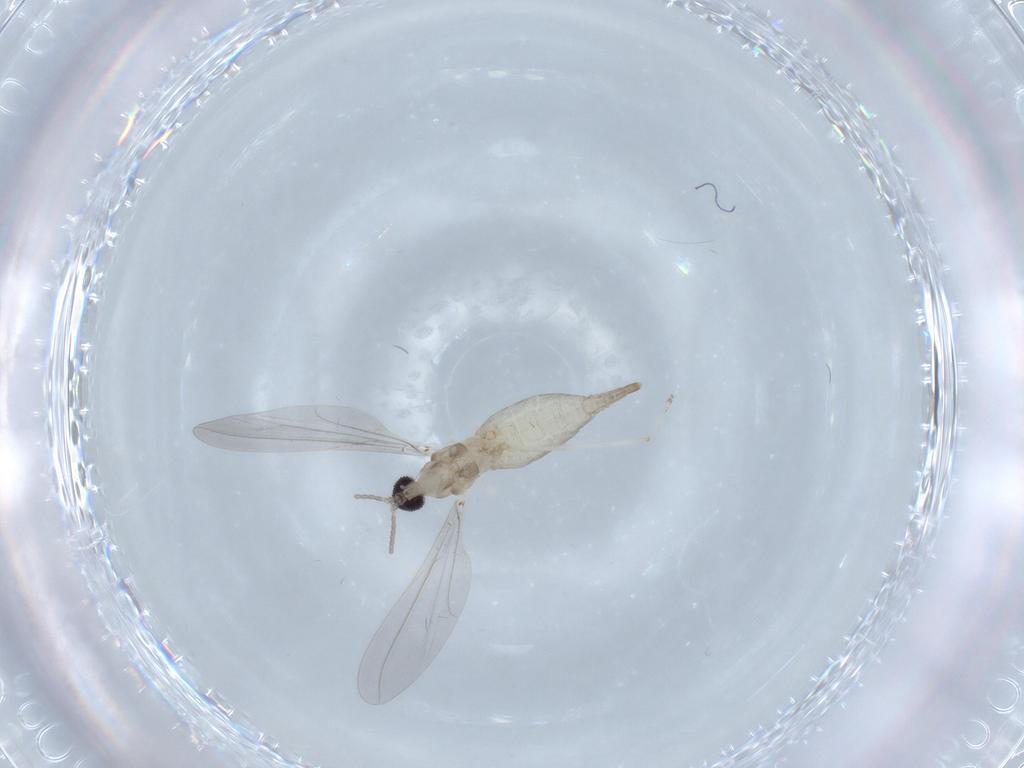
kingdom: Animalia
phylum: Arthropoda
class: Insecta
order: Diptera
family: Cecidomyiidae
